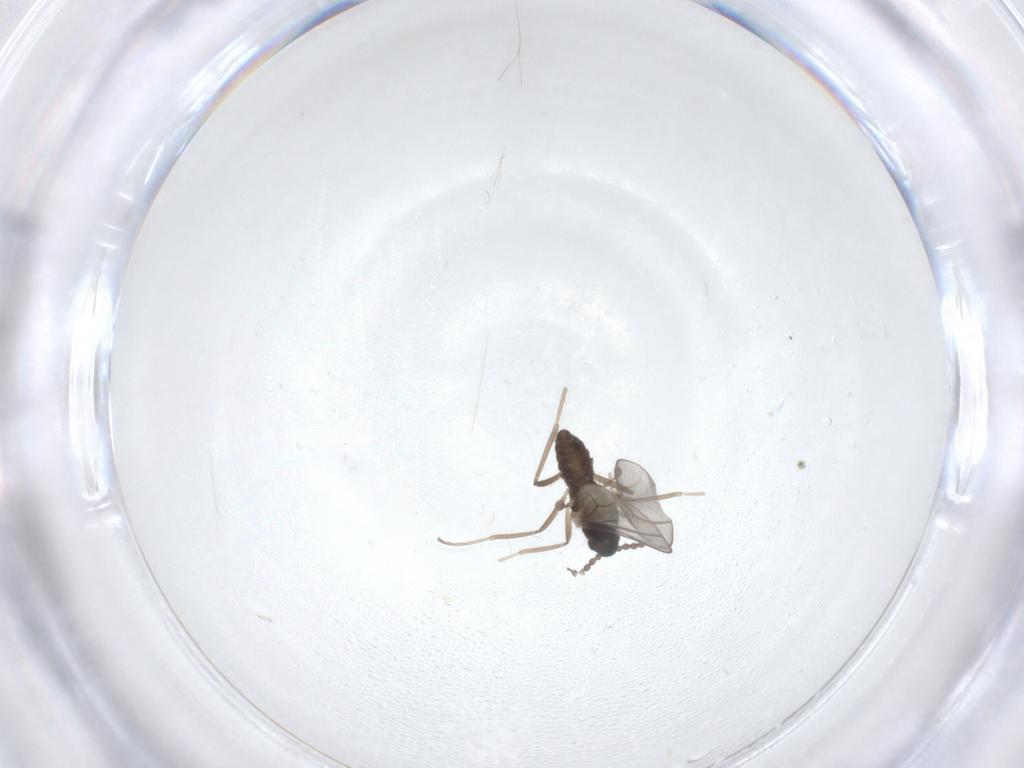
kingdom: Animalia
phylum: Arthropoda
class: Insecta
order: Diptera
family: Cecidomyiidae
